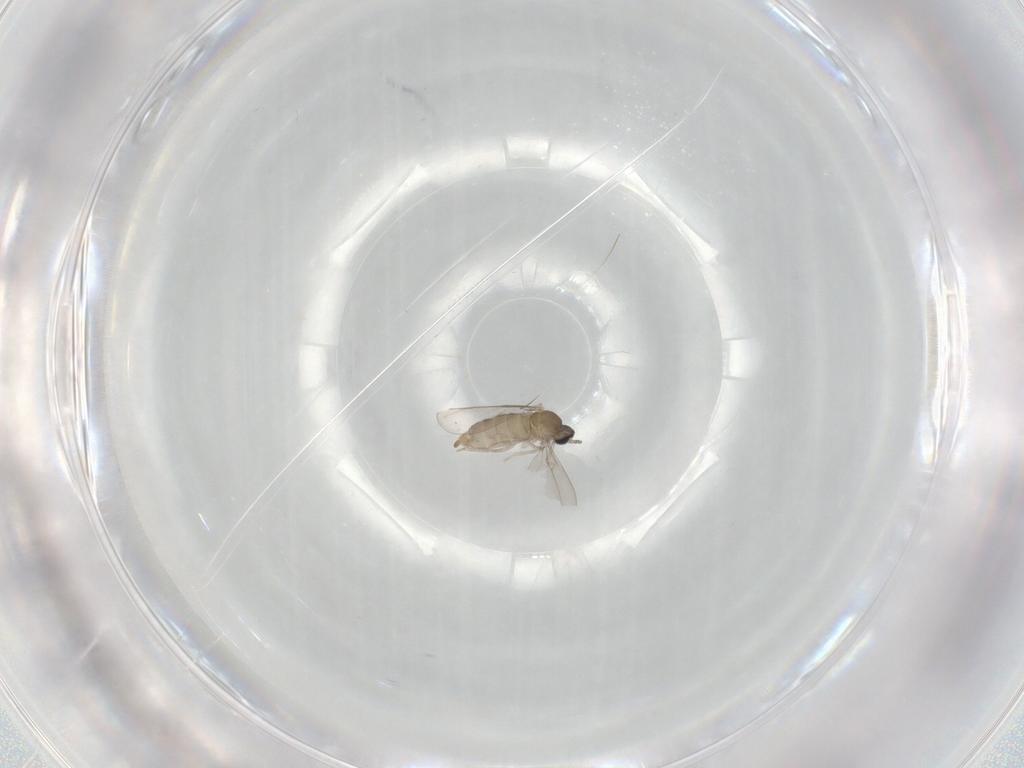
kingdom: Animalia
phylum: Arthropoda
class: Insecta
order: Diptera
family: Cecidomyiidae
